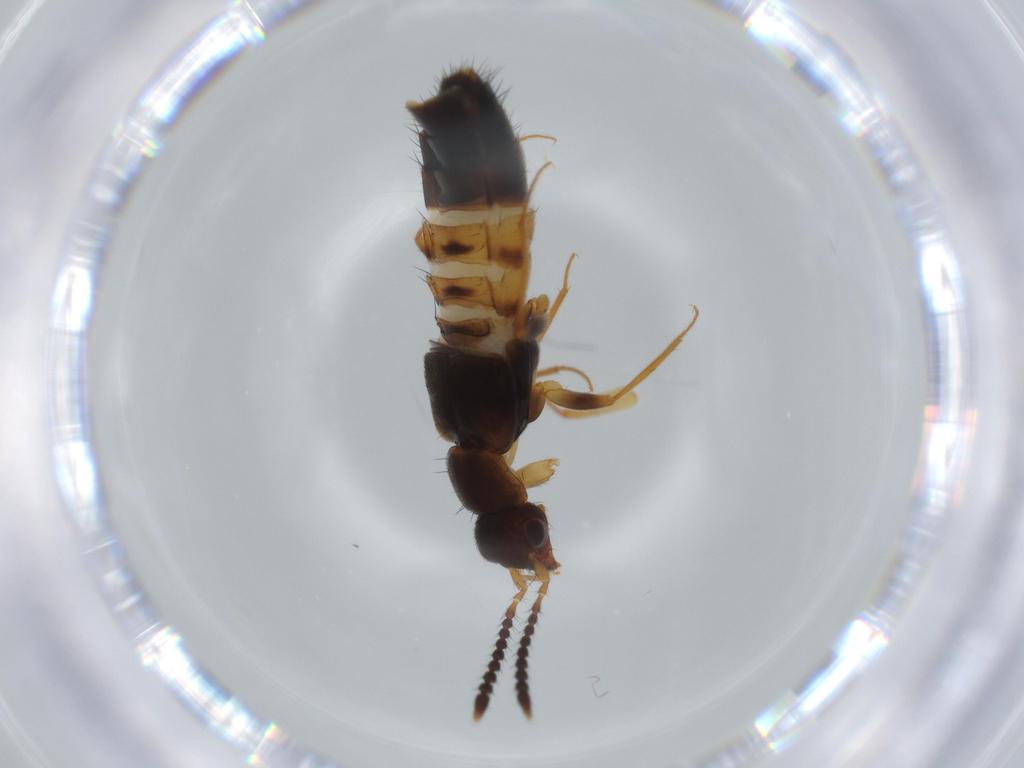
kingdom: Animalia
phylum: Arthropoda
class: Insecta
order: Coleoptera
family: Staphylinidae
